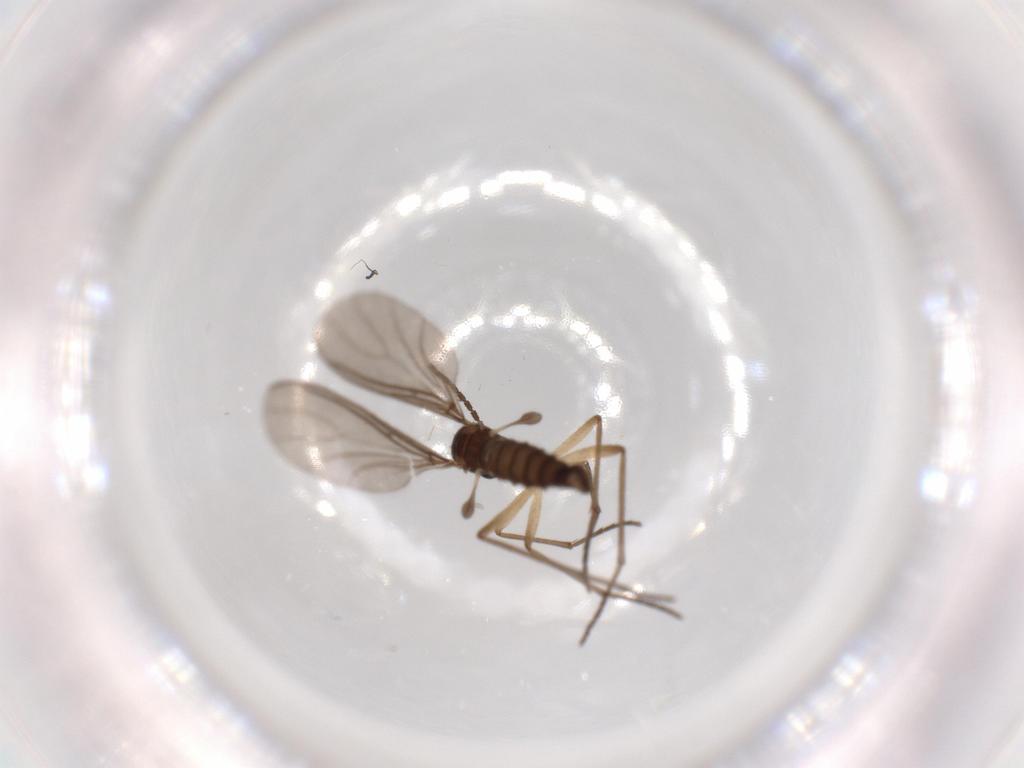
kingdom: Animalia
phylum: Arthropoda
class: Insecta
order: Diptera
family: Sciaridae
